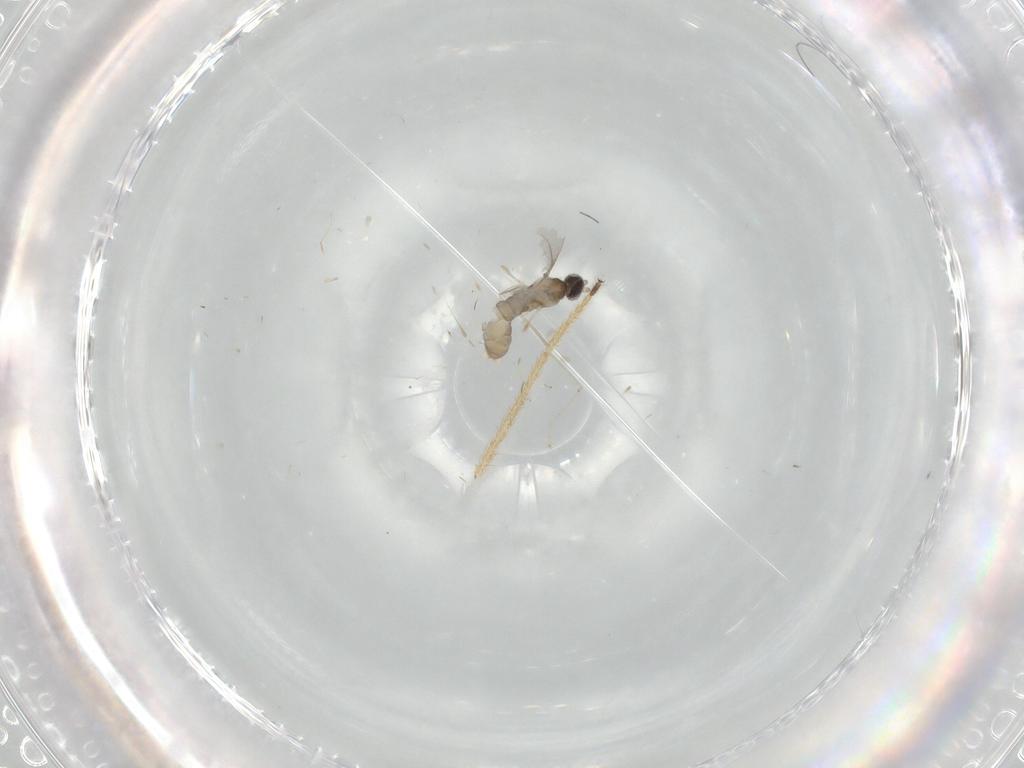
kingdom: Animalia
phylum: Arthropoda
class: Insecta
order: Diptera
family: Cecidomyiidae
